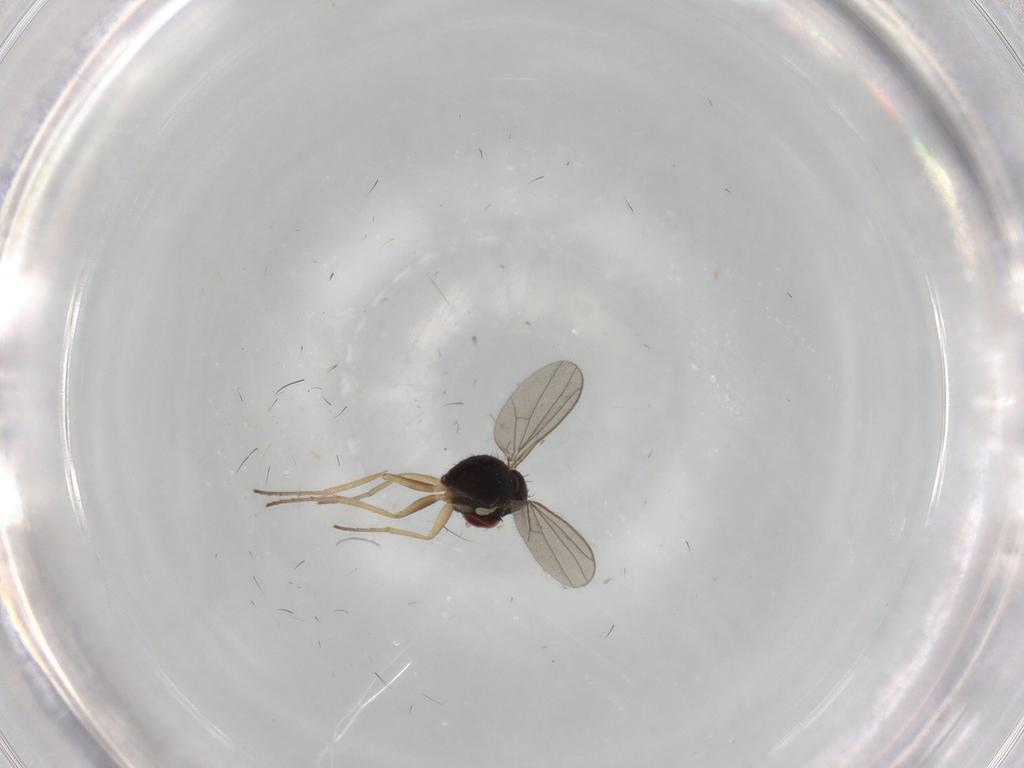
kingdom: Animalia
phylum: Arthropoda
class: Insecta
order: Diptera
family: Dolichopodidae
